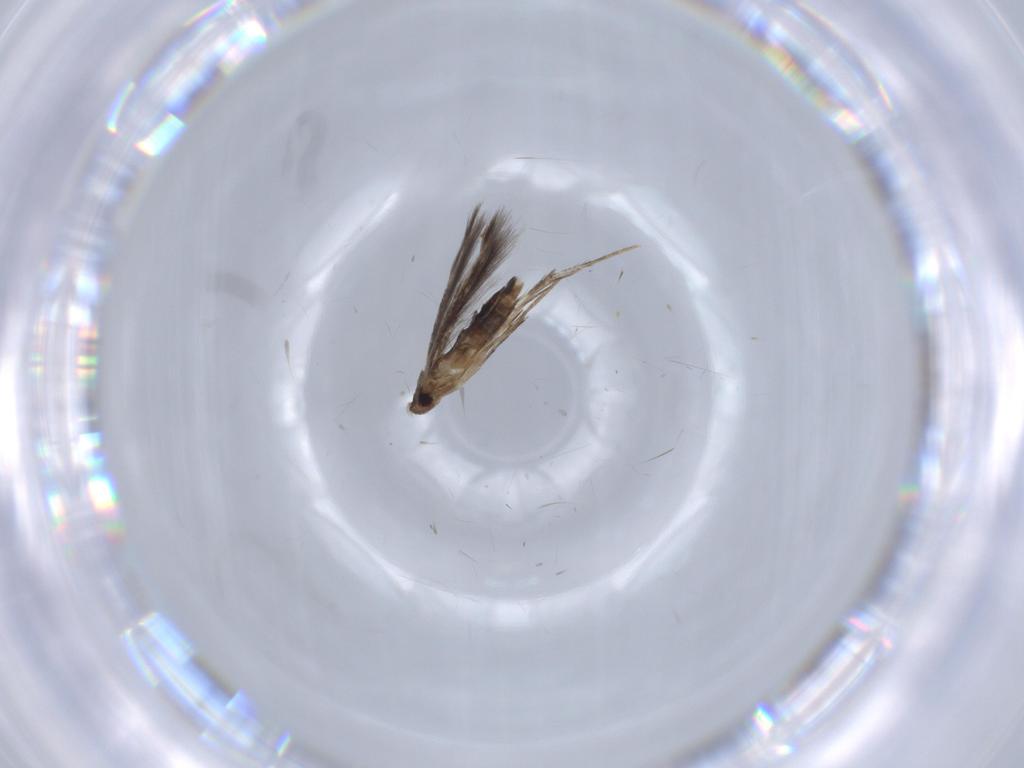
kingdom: Animalia
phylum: Arthropoda
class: Insecta
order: Lepidoptera
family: Pyralidae
